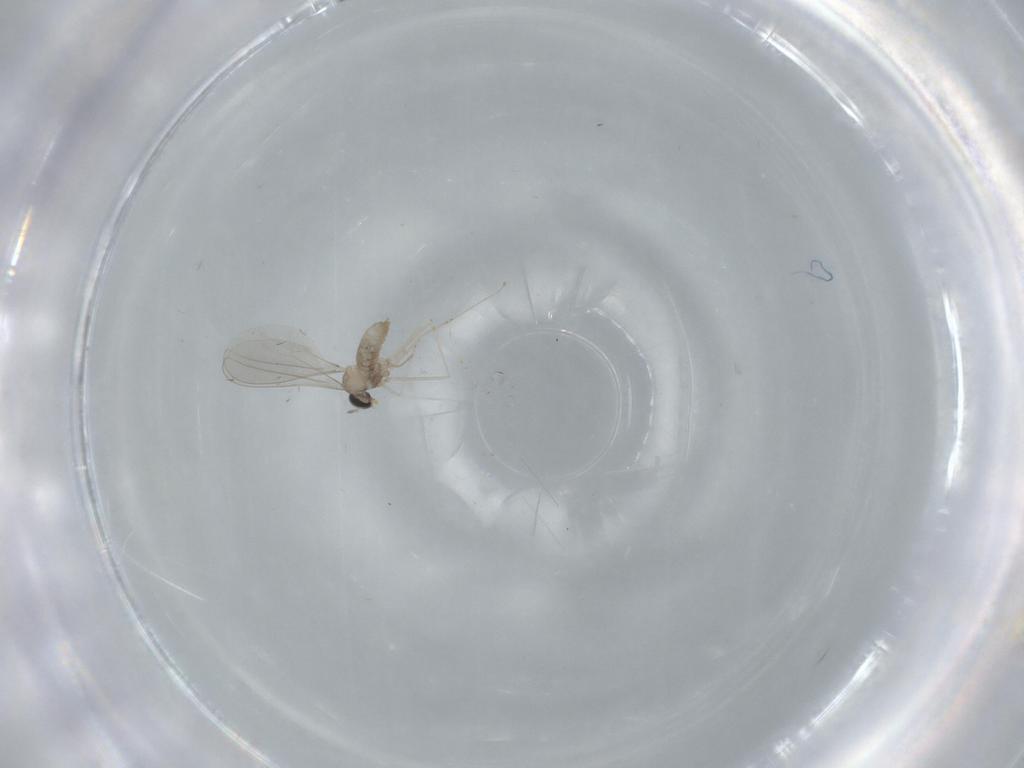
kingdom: Animalia
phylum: Arthropoda
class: Insecta
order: Diptera
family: Cecidomyiidae
